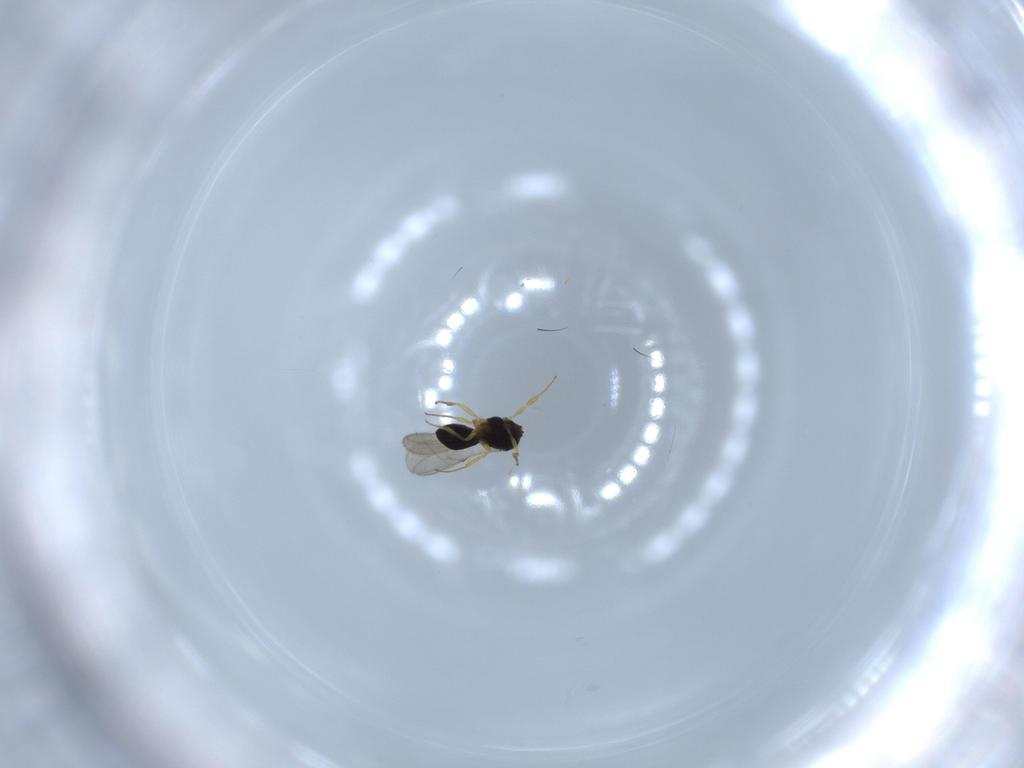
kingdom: Animalia
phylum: Arthropoda
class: Insecta
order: Hymenoptera
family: Scelionidae
